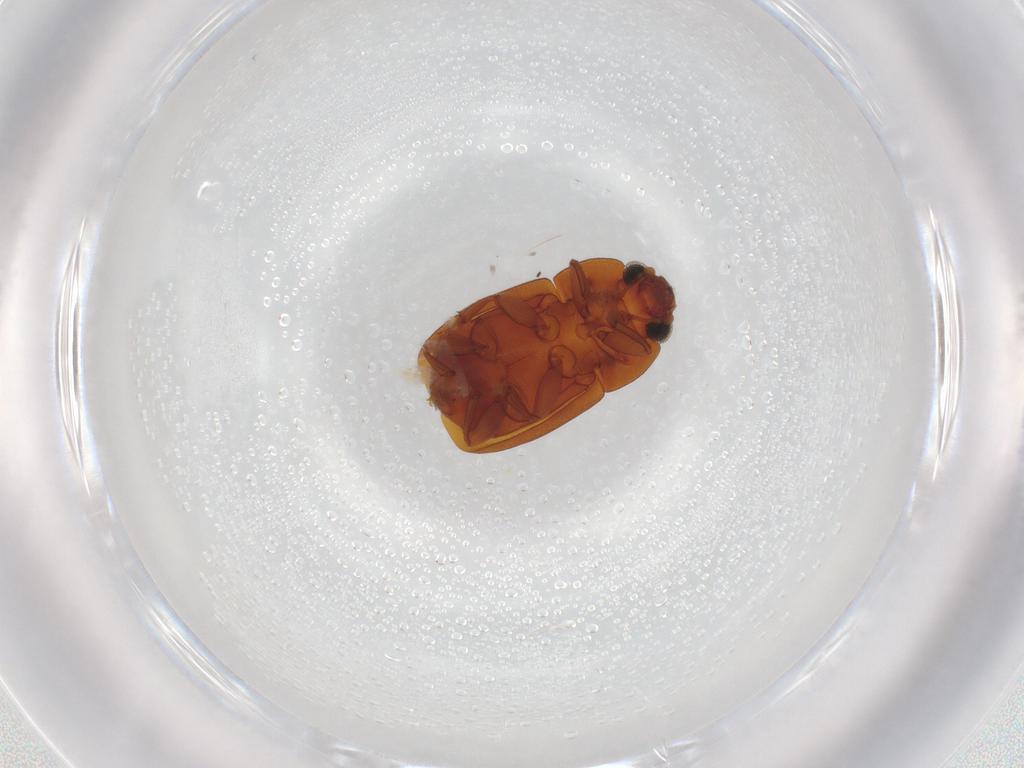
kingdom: Animalia
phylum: Arthropoda
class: Insecta
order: Coleoptera
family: Nitidulidae
